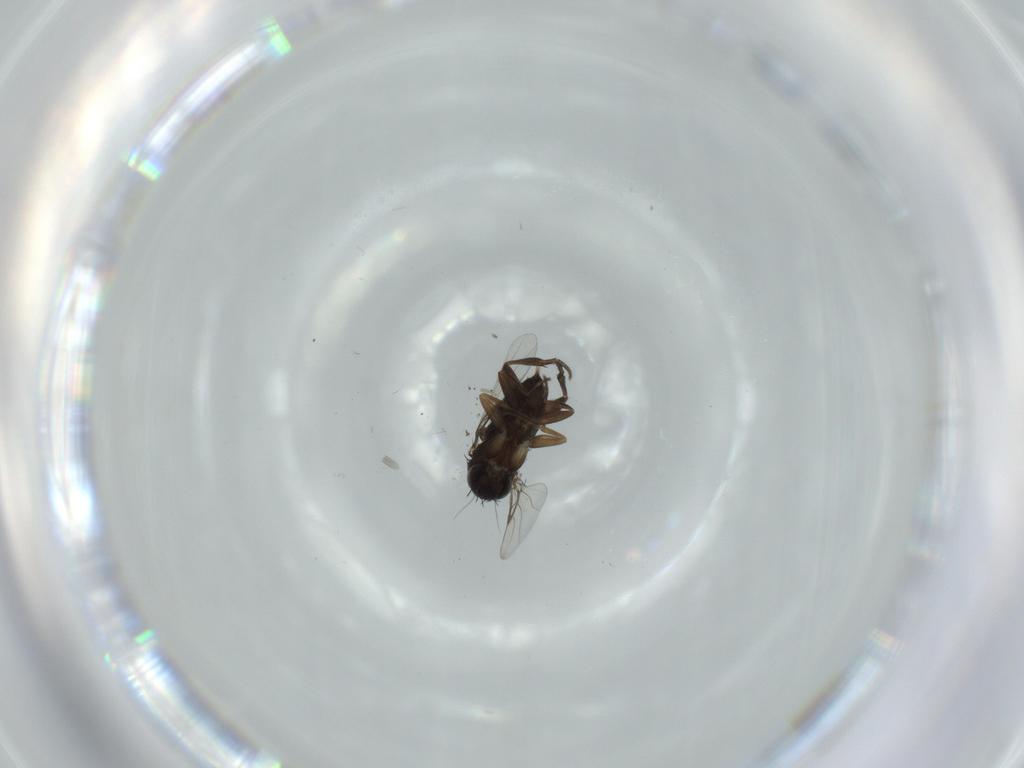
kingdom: Animalia
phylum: Arthropoda
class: Insecta
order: Diptera
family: Phoridae
